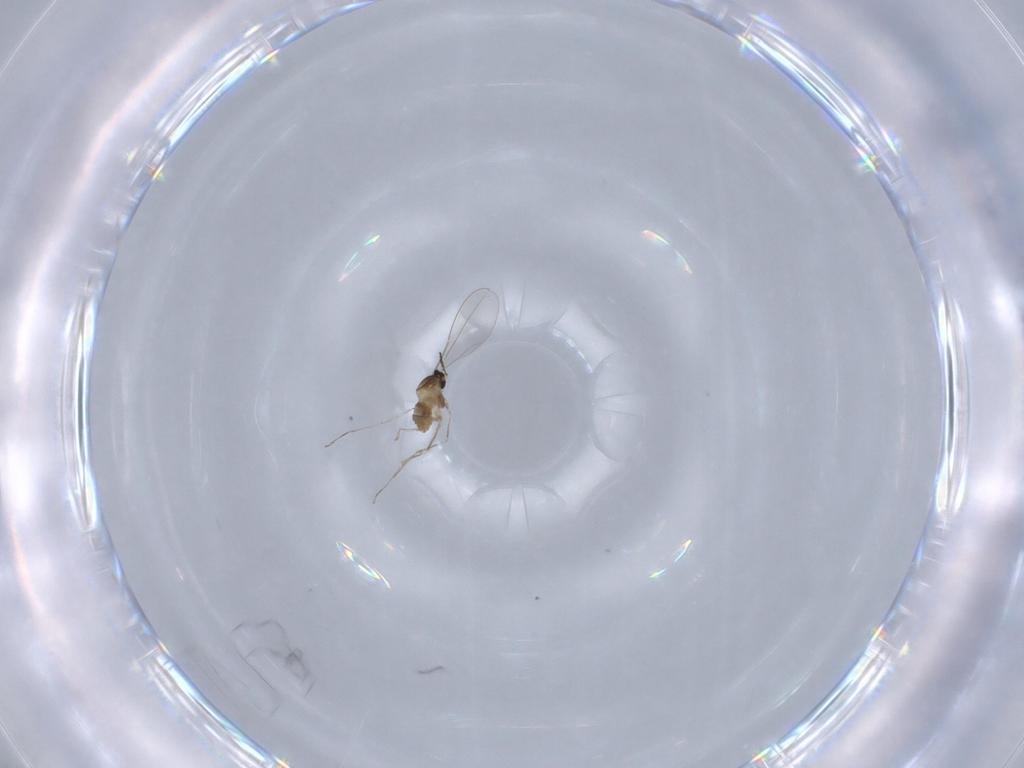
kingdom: Animalia
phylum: Arthropoda
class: Insecta
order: Diptera
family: Cecidomyiidae
